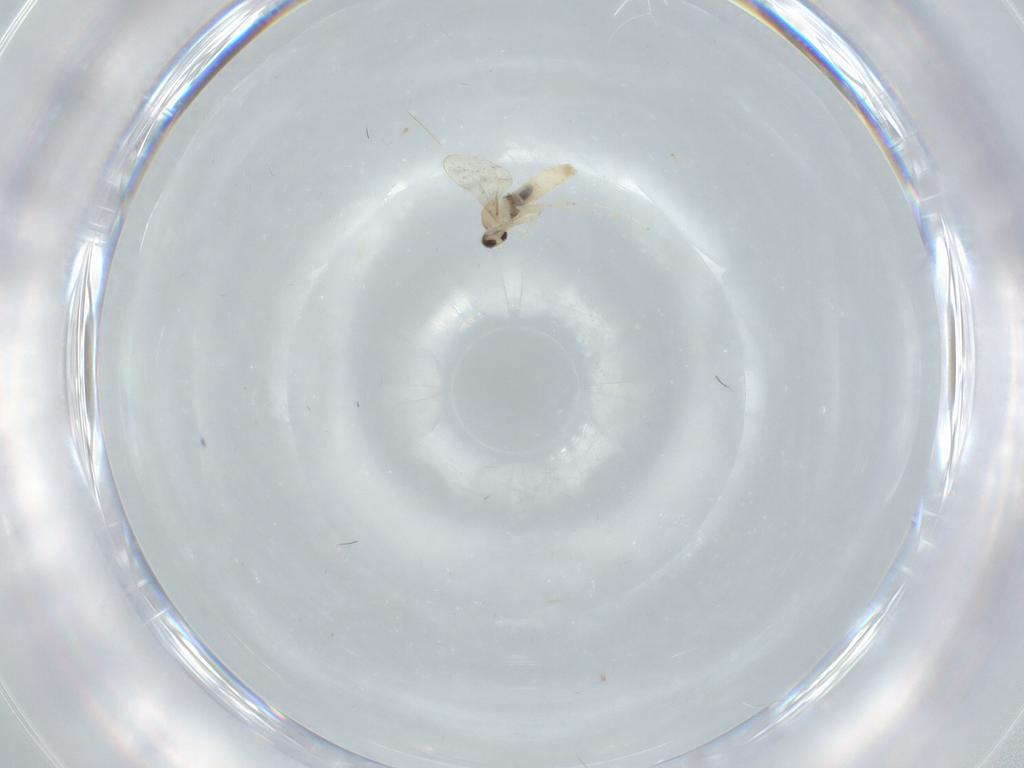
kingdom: Animalia
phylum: Arthropoda
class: Insecta
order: Diptera
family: Cecidomyiidae
